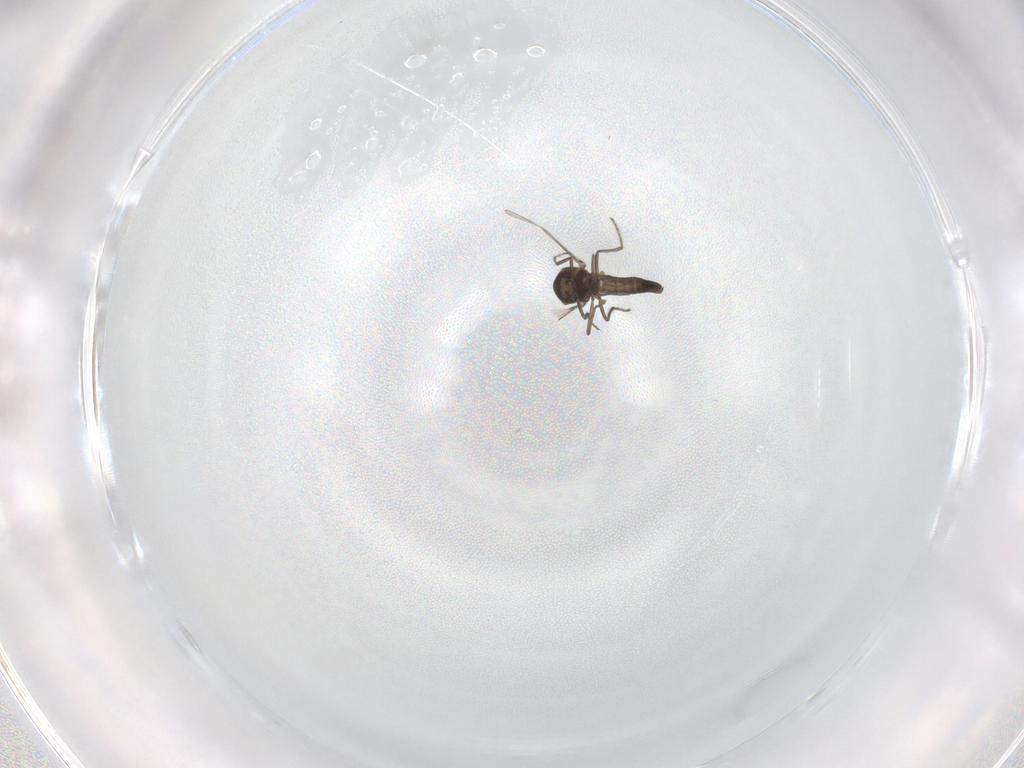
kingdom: Animalia
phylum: Arthropoda
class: Insecta
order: Diptera
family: Ceratopogonidae
